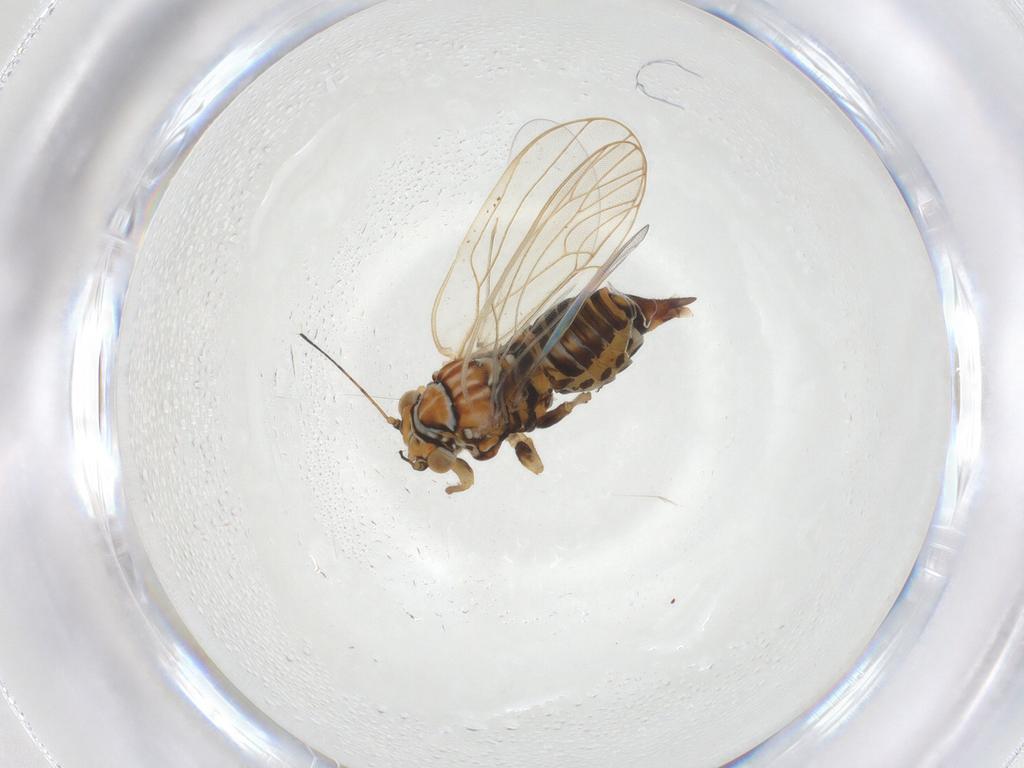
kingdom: Animalia
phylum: Arthropoda
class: Insecta
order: Hemiptera
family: Psyllidae
